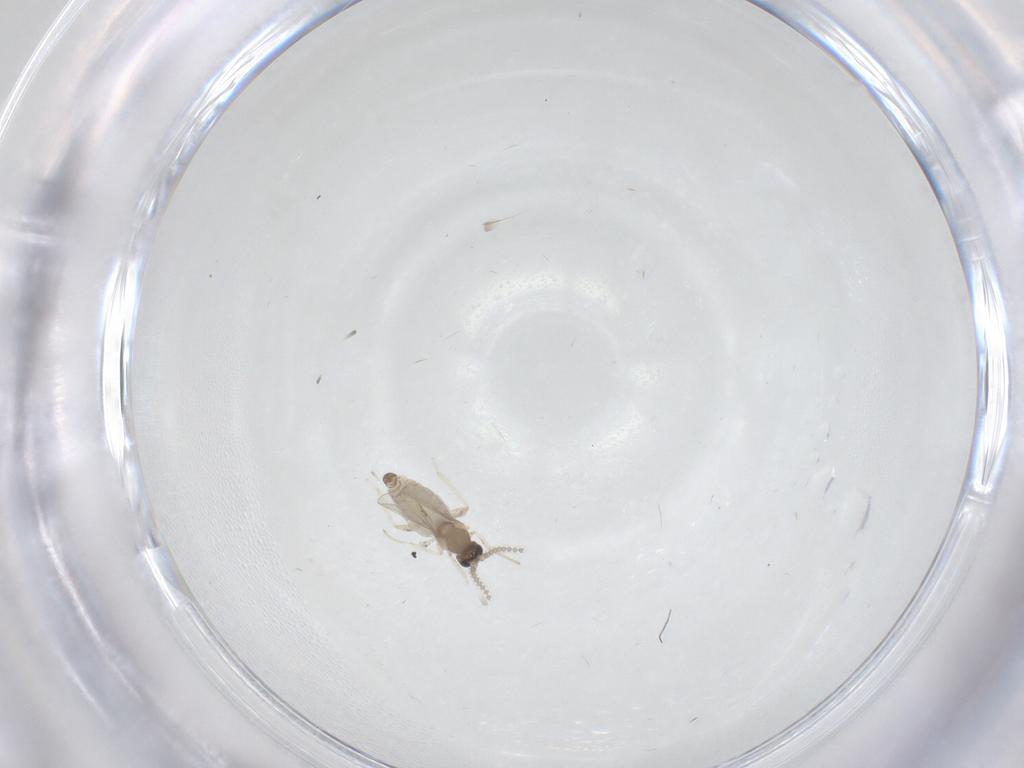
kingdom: Animalia
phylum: Arthropoda
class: Insecta
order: Diptera
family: Cecidomyiidae
